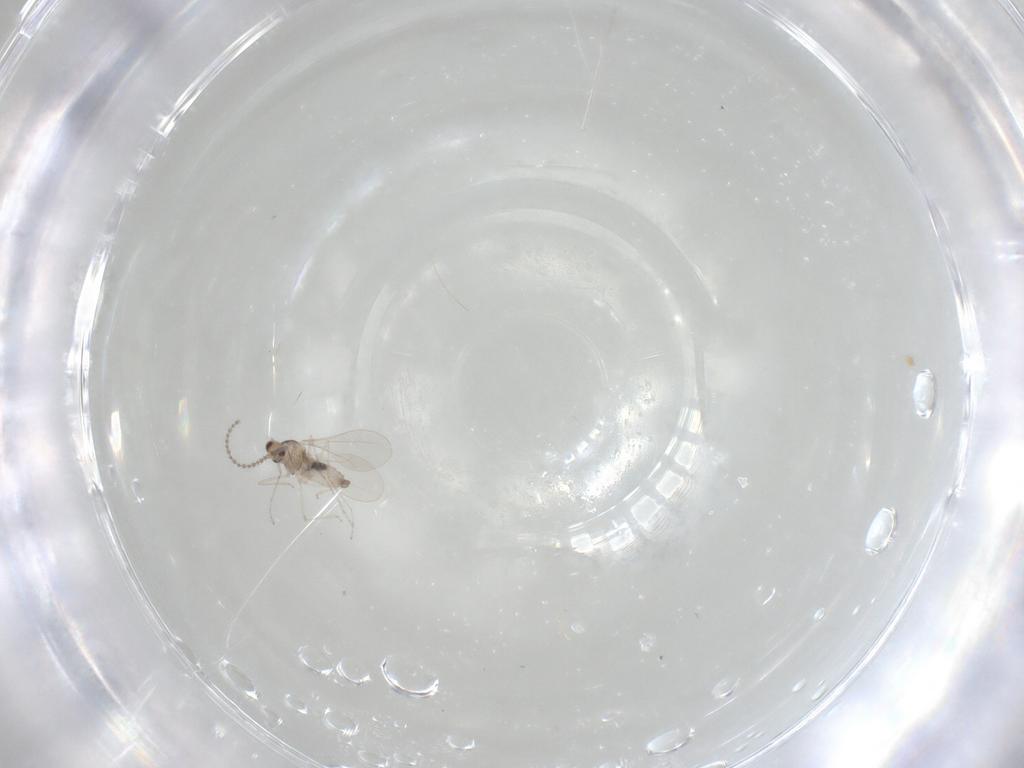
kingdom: Animalia
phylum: Arthropoda
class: Insecta
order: Diptera
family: Cecidomyiidae
